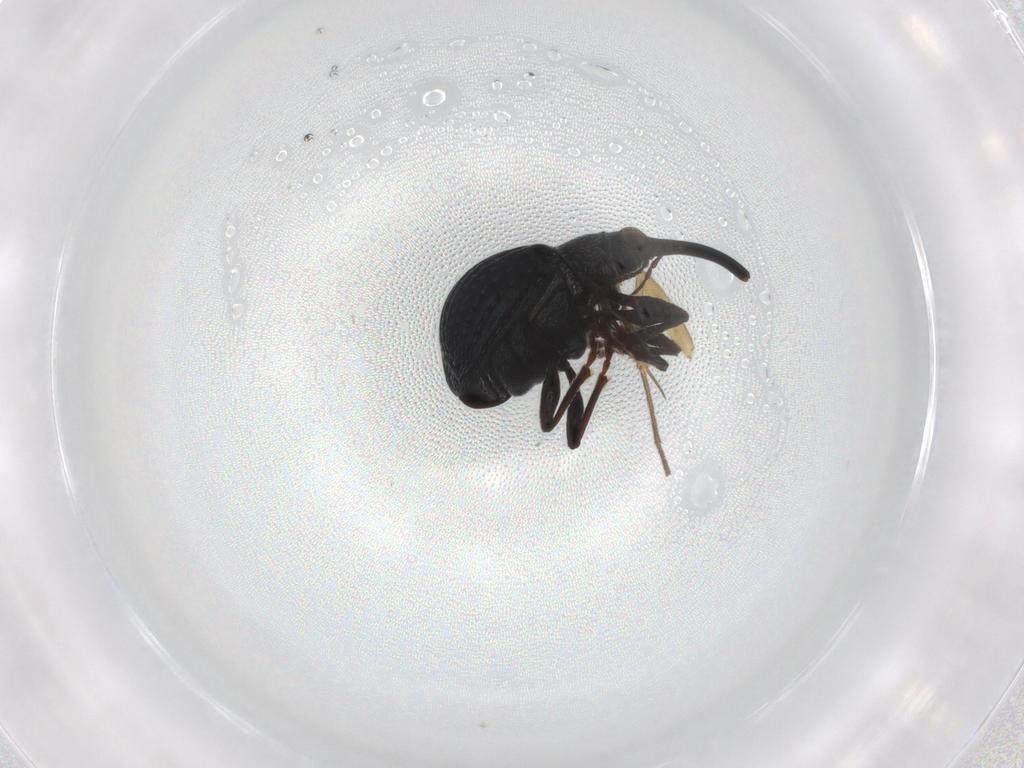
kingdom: Animalia
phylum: Arthropoda
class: Insecta
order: Coleoptera
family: Brentidae
